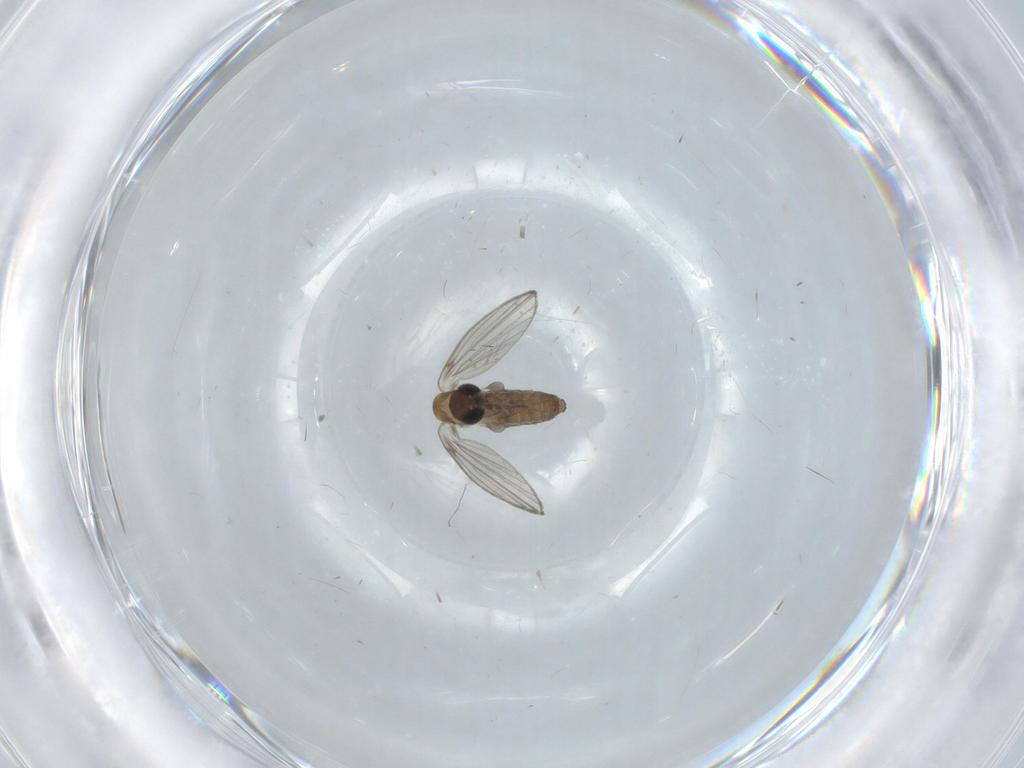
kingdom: Animalia
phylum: Arthropoda
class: Insecta
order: Diptera
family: Psychodidae
